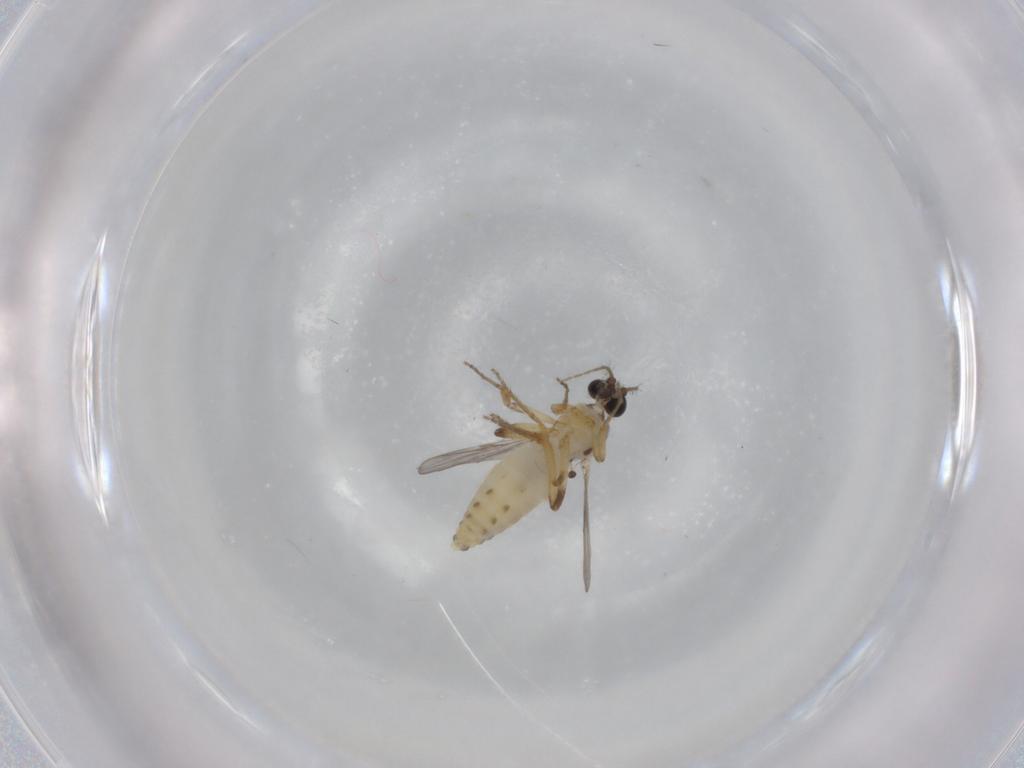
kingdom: Animalia
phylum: Arthropoda
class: Insecta
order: Diptera
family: Ceratopogonidae
